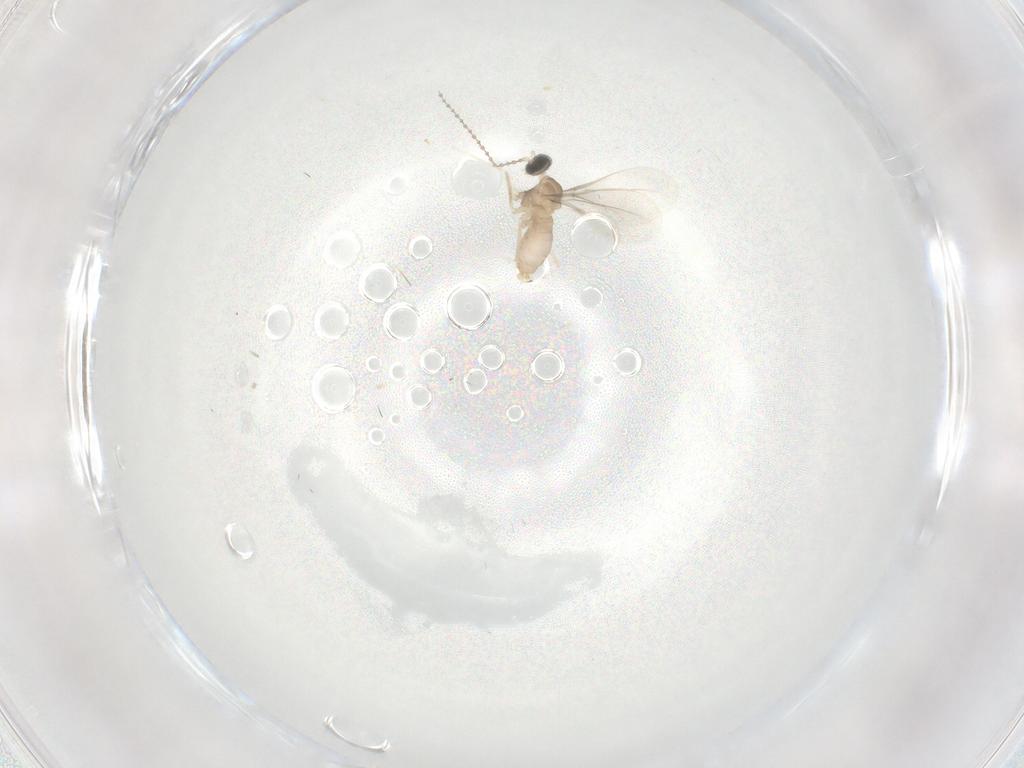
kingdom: Animalia
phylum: Arthropoda
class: Insecta
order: Diptera
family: Cecidomyiidae
